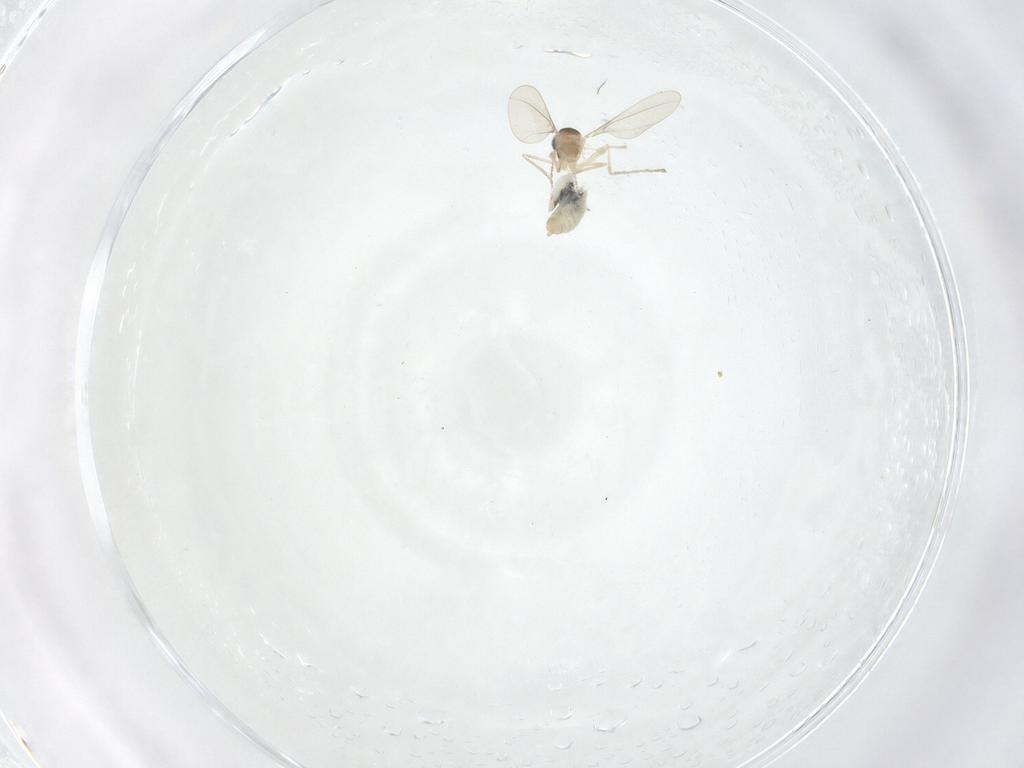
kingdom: Animalia
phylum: Arthropoda
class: Insecta
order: Diptera
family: Cecidomyiidae
